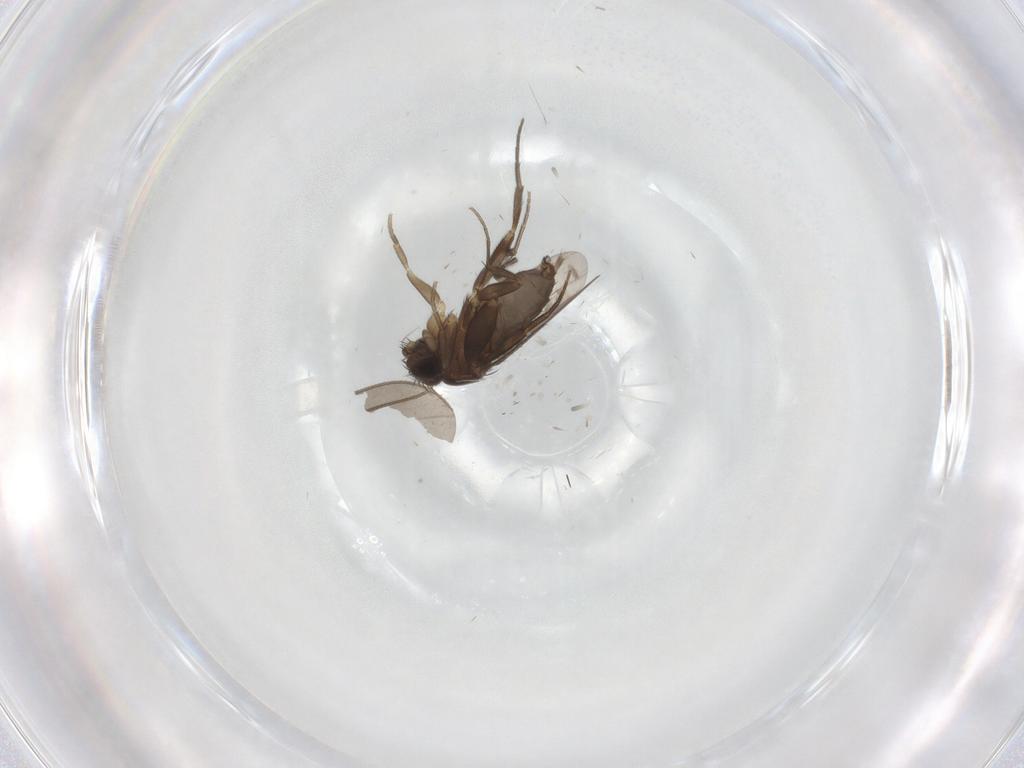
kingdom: Animalia
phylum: Arthropoda
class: Insecta
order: Diptera
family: Phoridae
